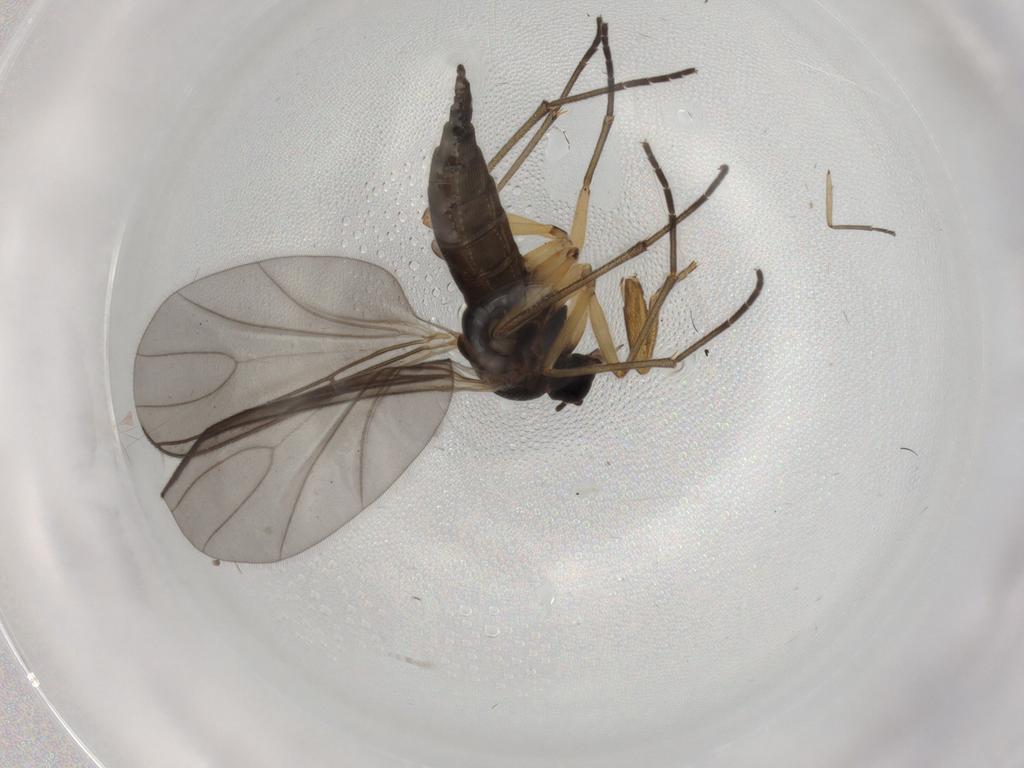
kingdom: Animalia
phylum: Arthropoda
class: Insecta
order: Diptera
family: Sciaridae
